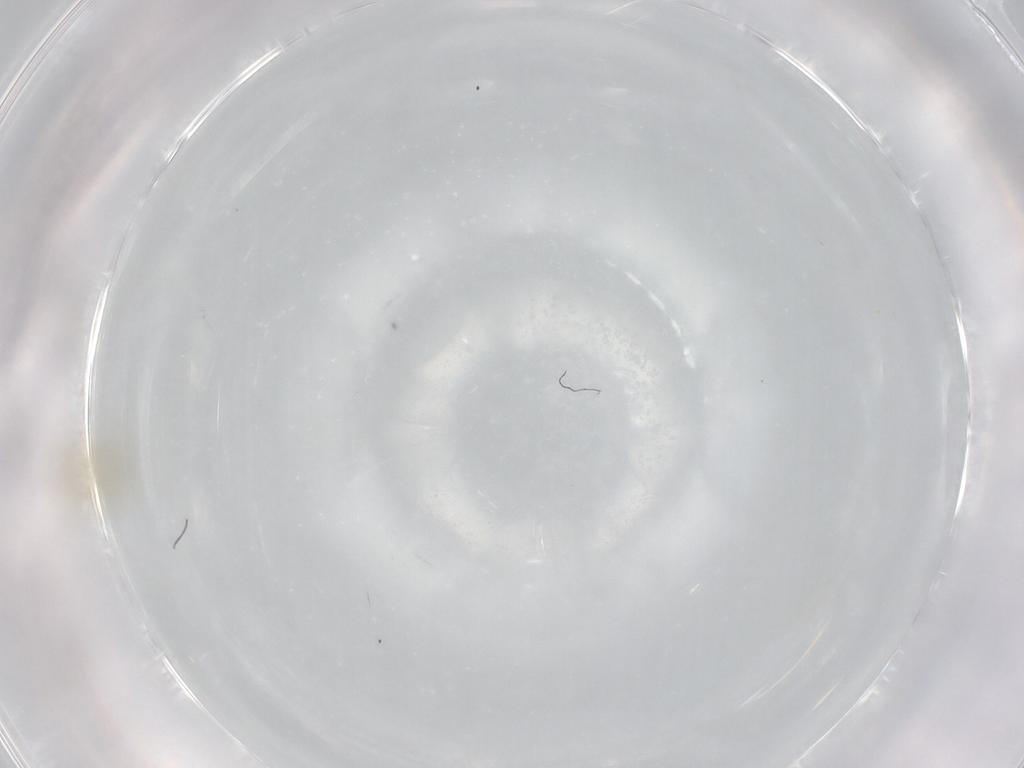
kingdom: Animalia
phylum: Arthropoda
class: Insecta
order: Hemiptera
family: Aleyrodidae
